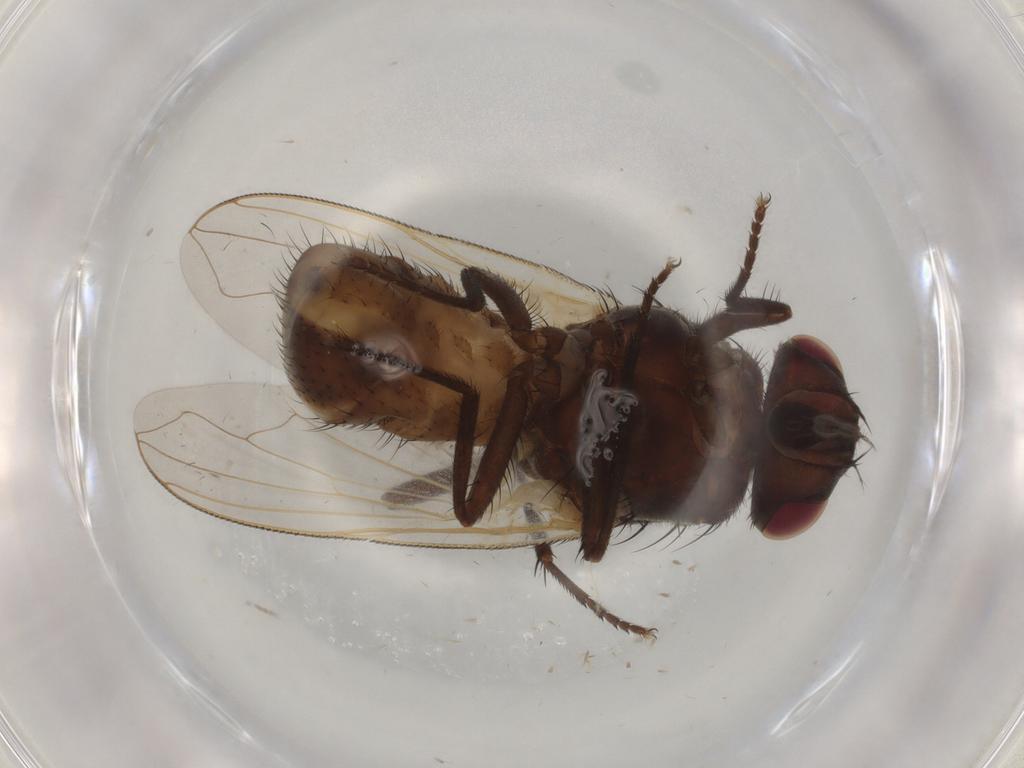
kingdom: Animalia
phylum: Arthropoda
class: Insecta
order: Diptera
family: Muscidae
